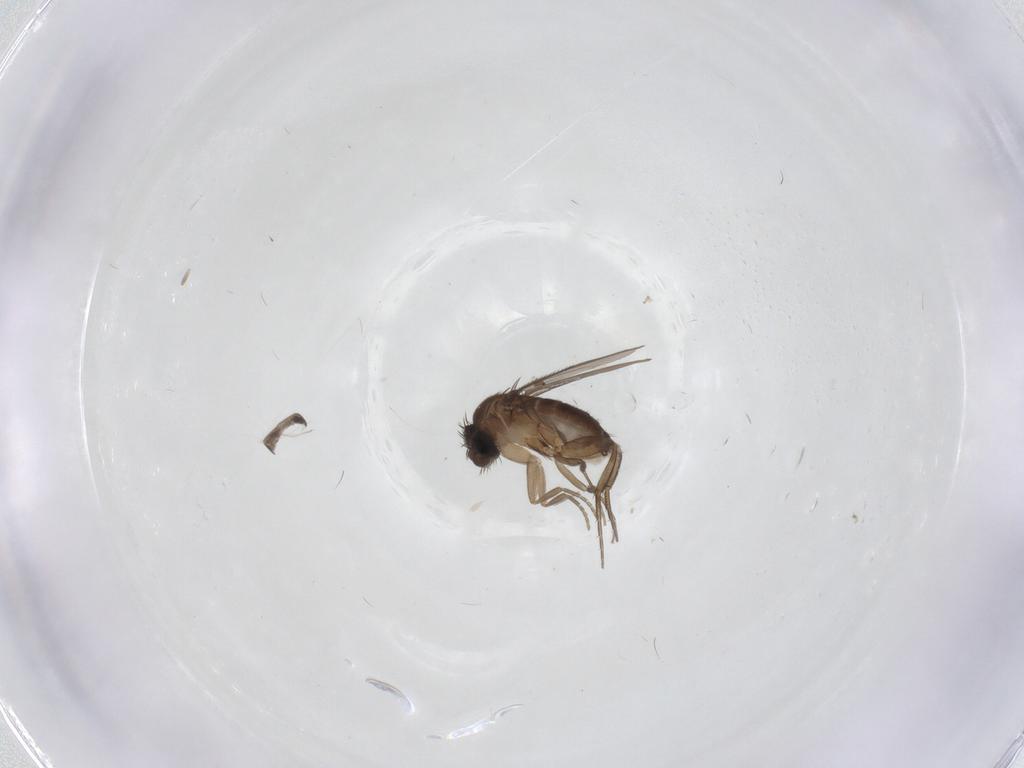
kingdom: Animalia
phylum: Arthropoda
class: Insecta
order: Diptera
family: Phoridae
